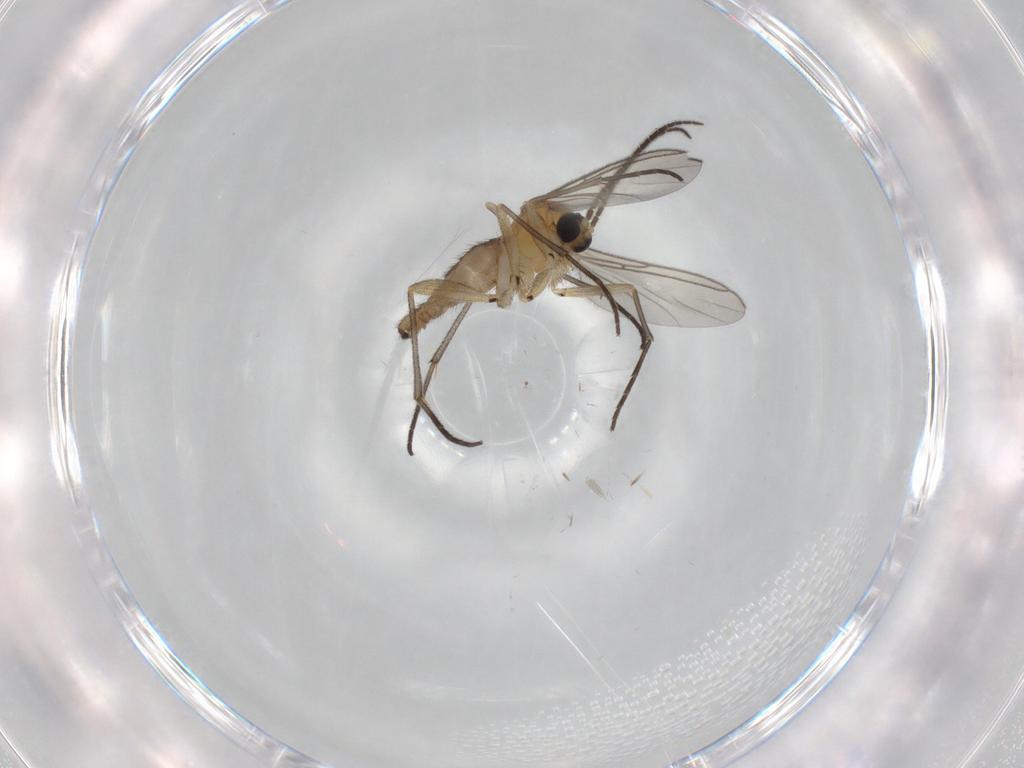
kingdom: Animalia
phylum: Arthropoda
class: Insecta
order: Diptera
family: Sciaridae
